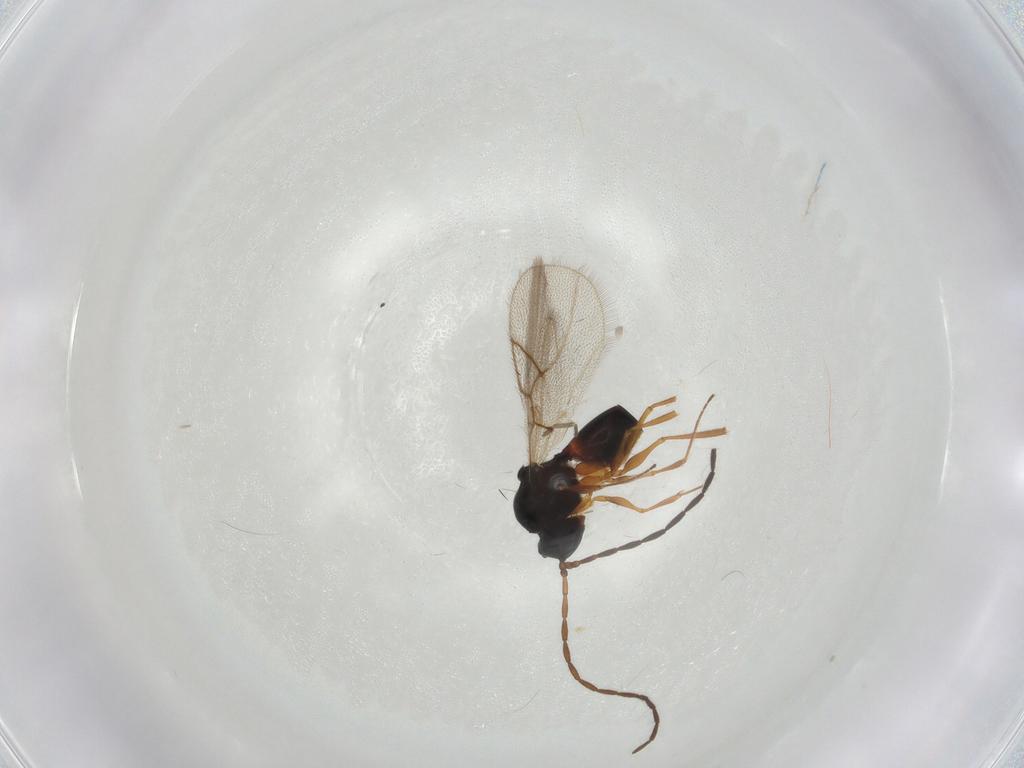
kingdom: Animalia
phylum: Arthropoda
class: Insecta
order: Hymenoptera
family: Figitidae
